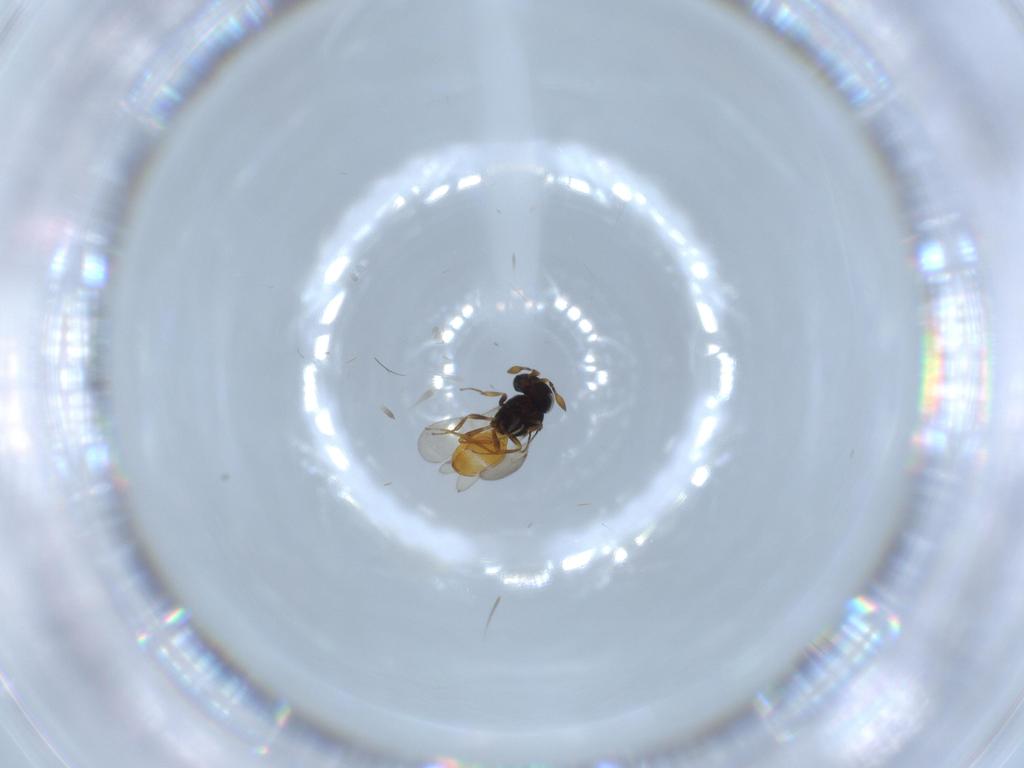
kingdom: Animalia
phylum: Arthropoda
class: Insecta
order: Hymenoptera
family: Scelionidae
